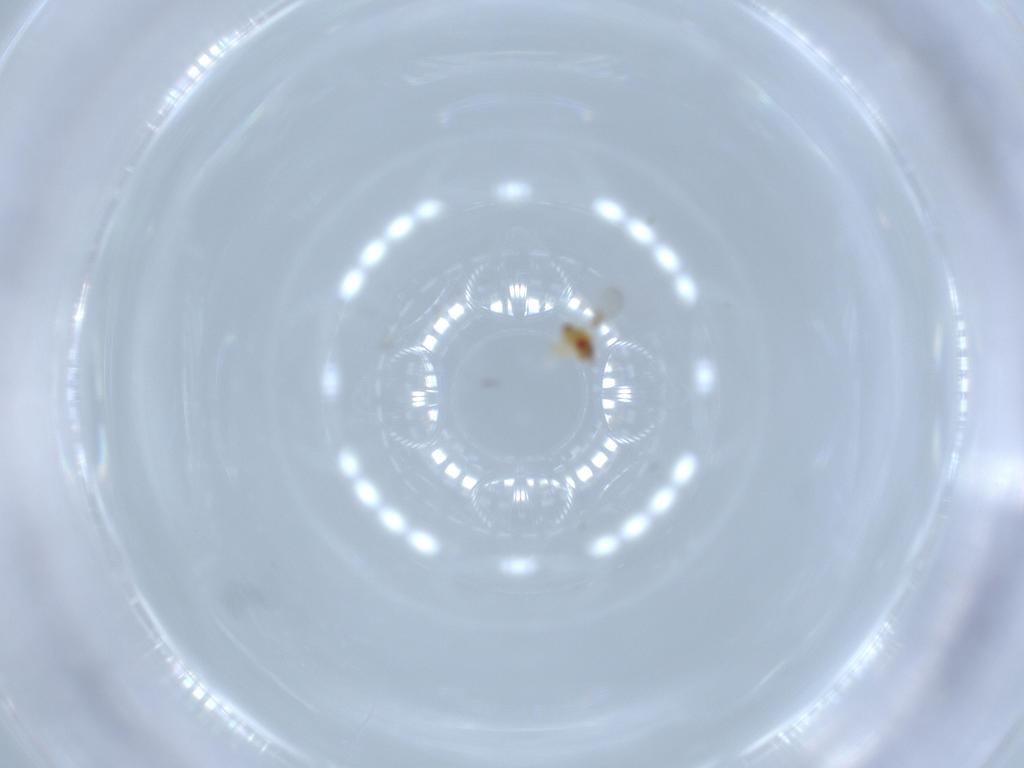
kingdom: Animalia
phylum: Arthropoda
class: Insecta
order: Hymenoptera
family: Trichogrammatidae
